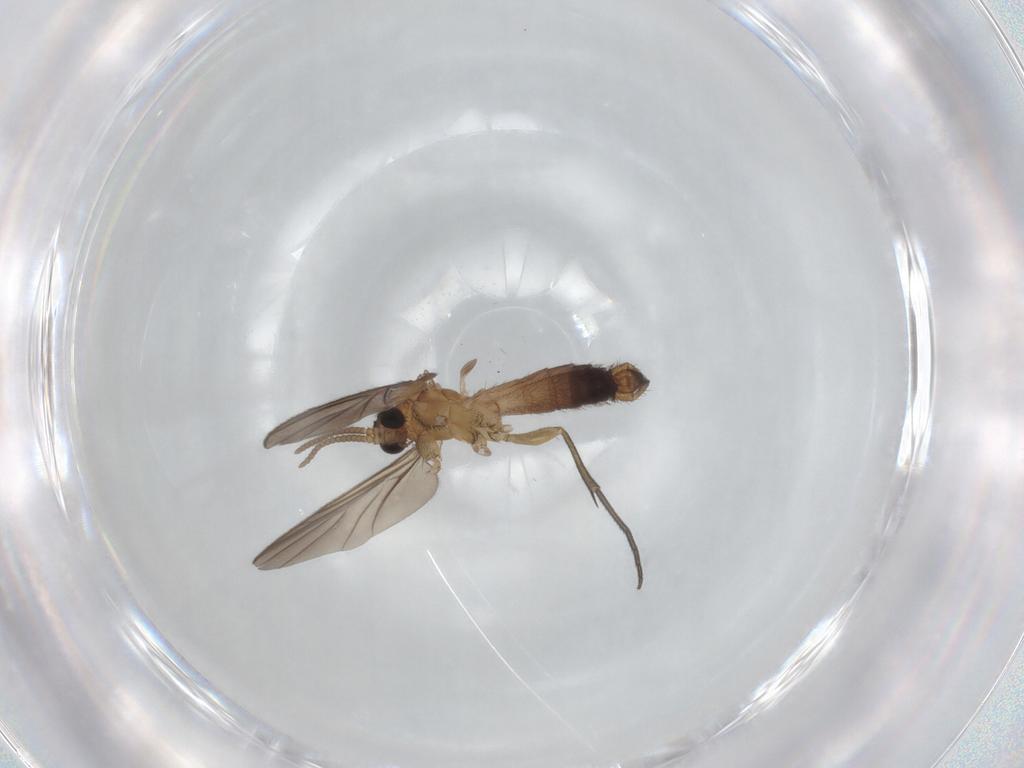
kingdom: Animalia
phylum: Arthropoda
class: Insecta
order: Diptera
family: Keroplatidae
